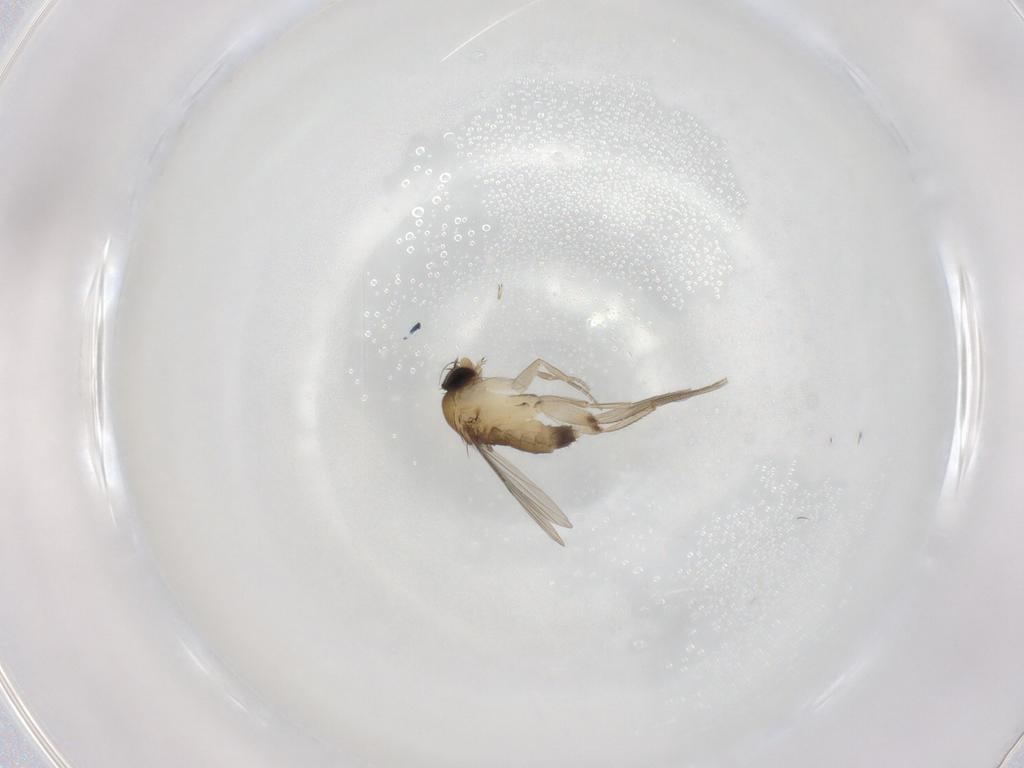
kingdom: Animalia
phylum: Arthropoda
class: Insecta
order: Diptera
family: Phoridae
